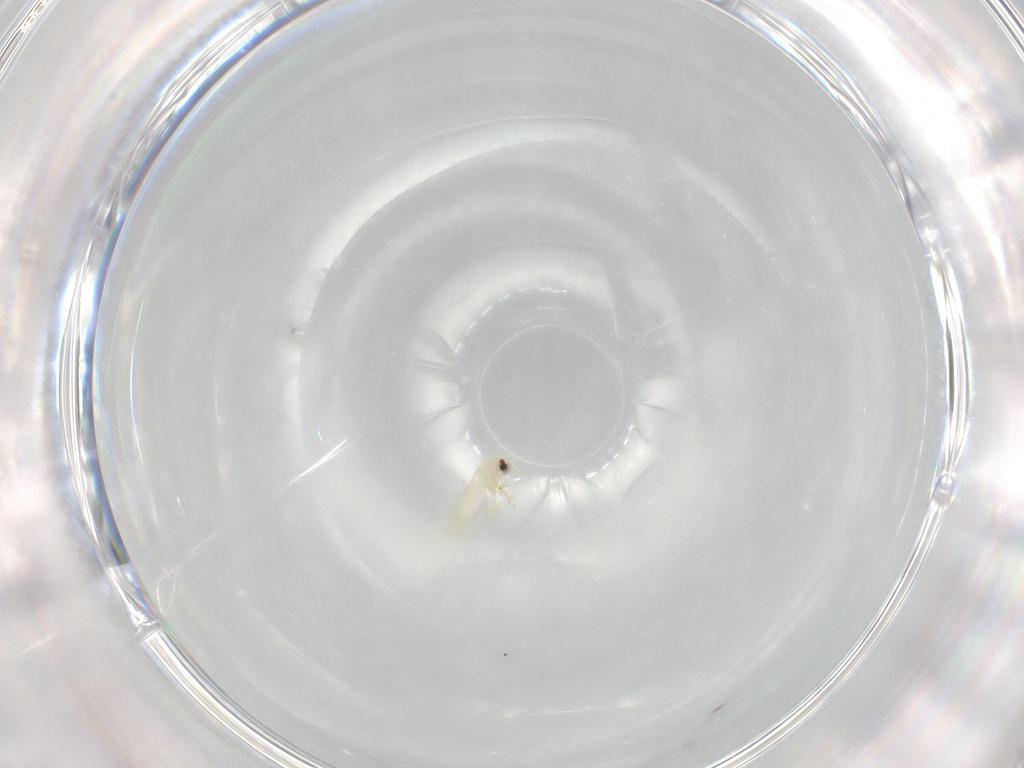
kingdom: Animalia
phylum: Arthropoda
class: Insecta
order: Hemiptera
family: Aleyrodidae
